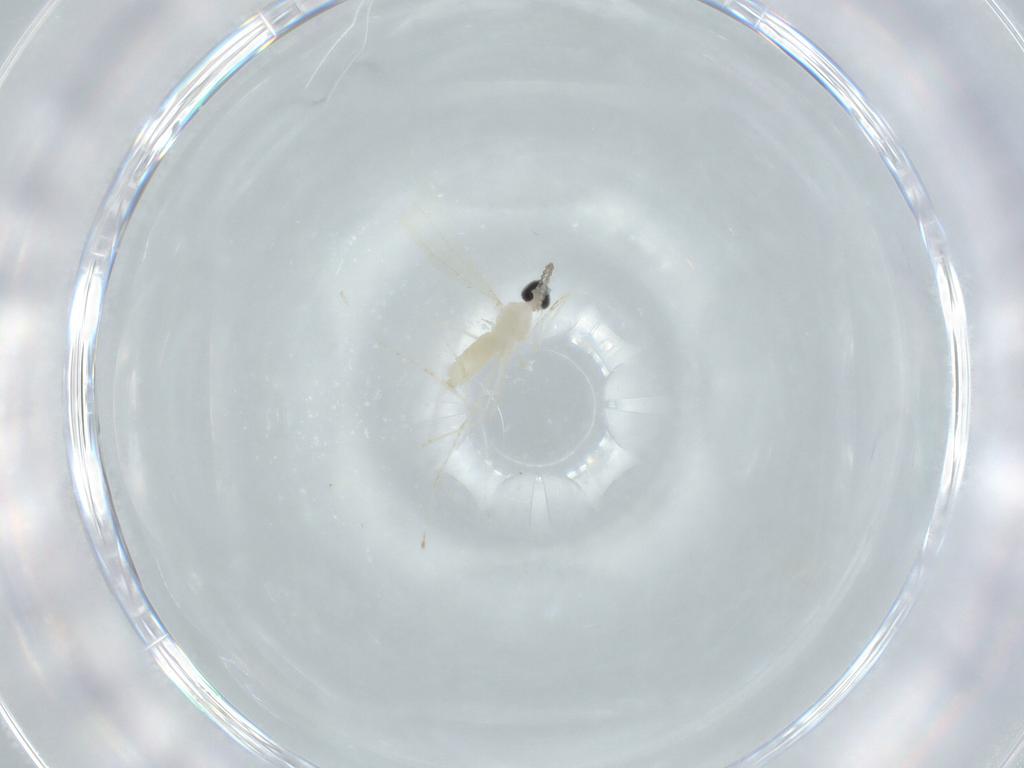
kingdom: Animalia
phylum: Arthropoda
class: Insecta
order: Diptera
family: Cecidomyiidae
